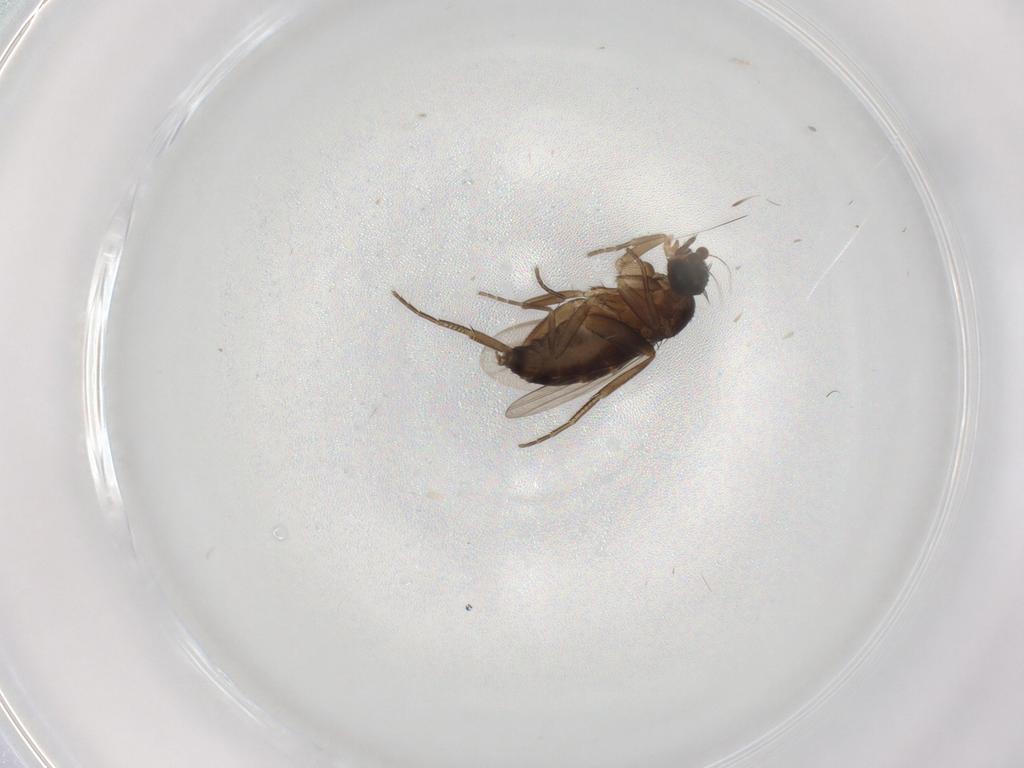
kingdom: Animalia
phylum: Arthropoda
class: Insecta
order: Diptera
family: Phoridae
